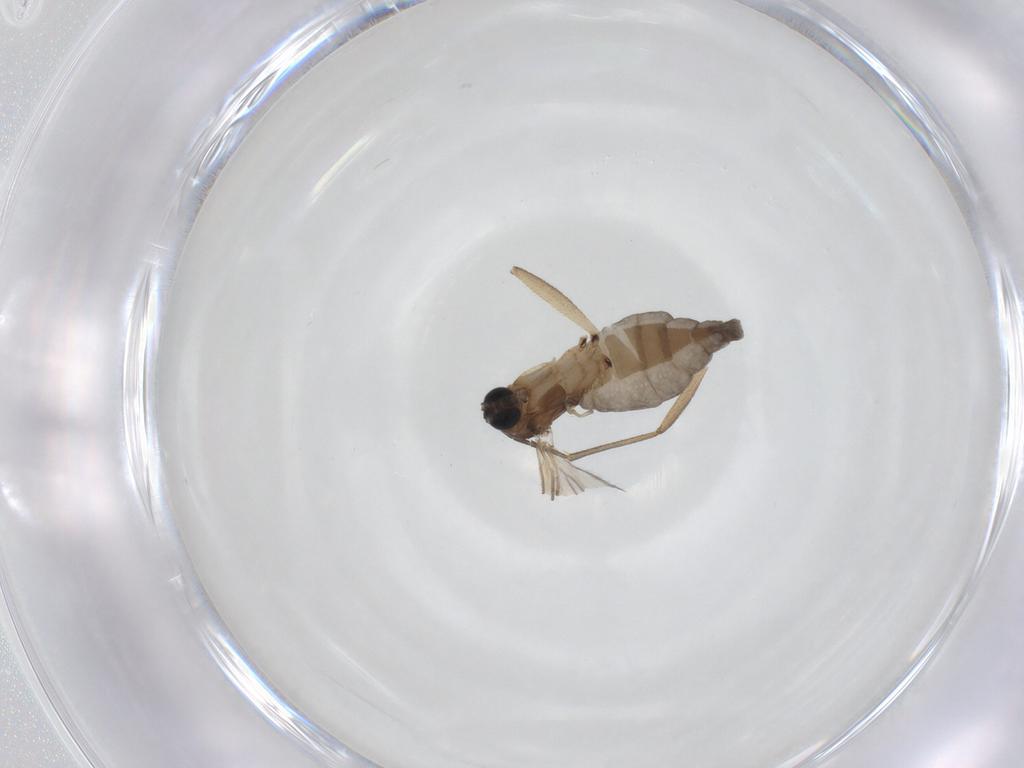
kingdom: Animalia
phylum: Arthropoda
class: Insecta
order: Diptera
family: Sciaridae
